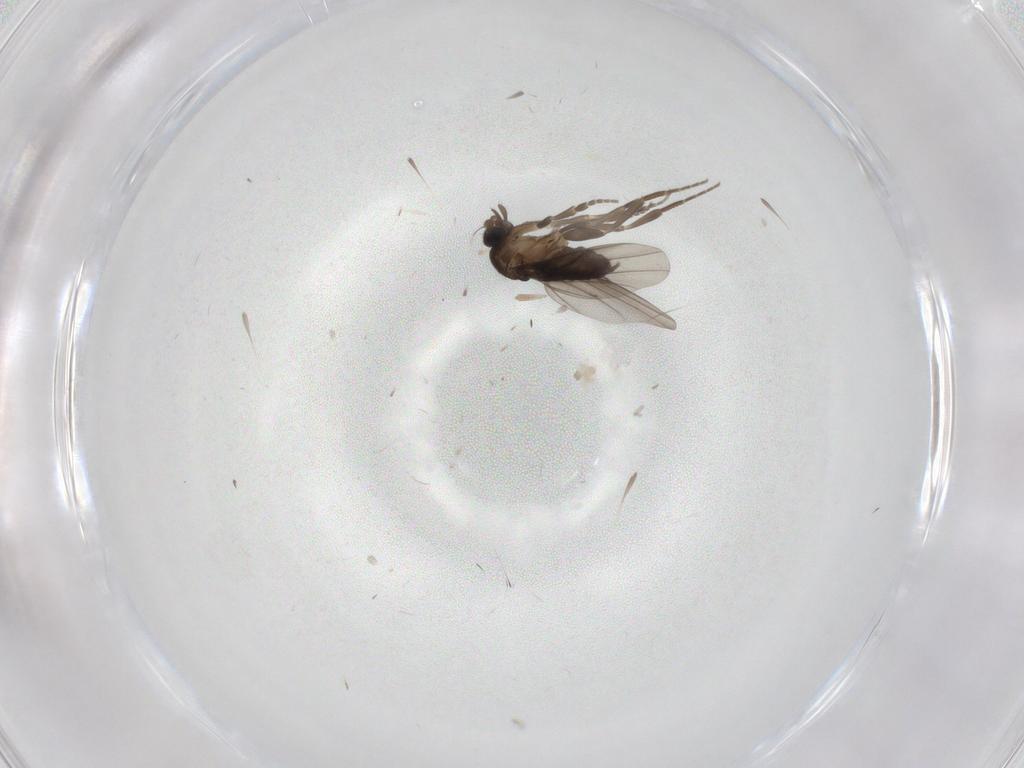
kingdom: Animalia
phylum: Arthropoda
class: Insecta
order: Diptera
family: Phoridae
